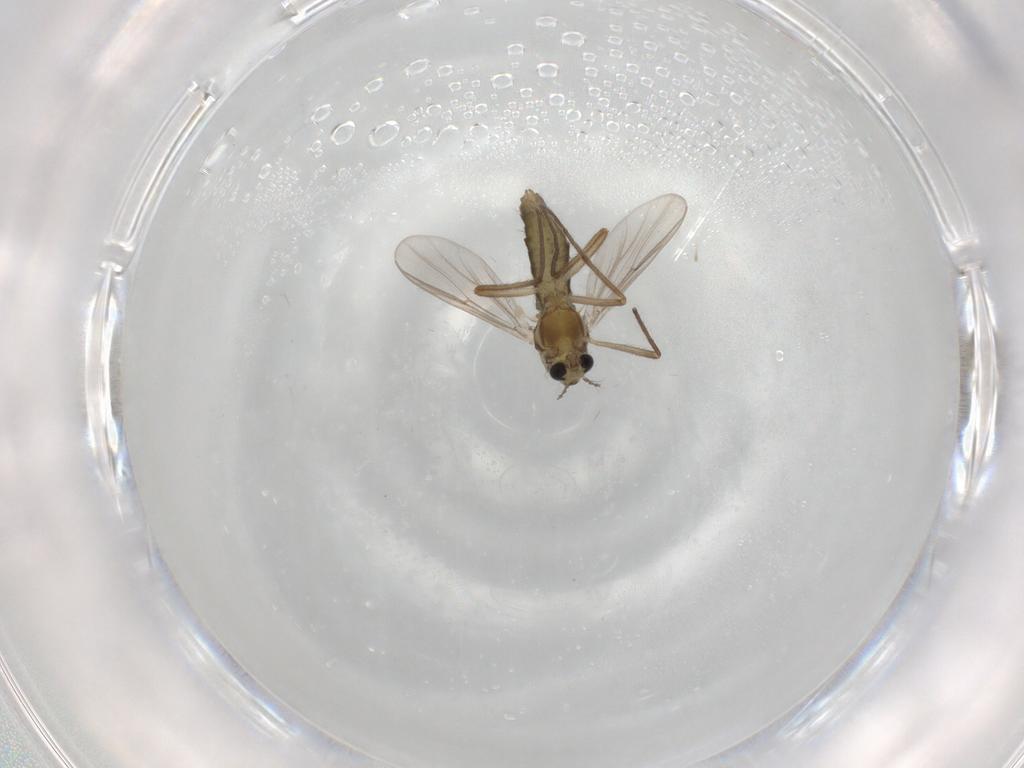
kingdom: Animalia
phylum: Arthropoda
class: Insecta
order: Diptera
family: Chironomidae
